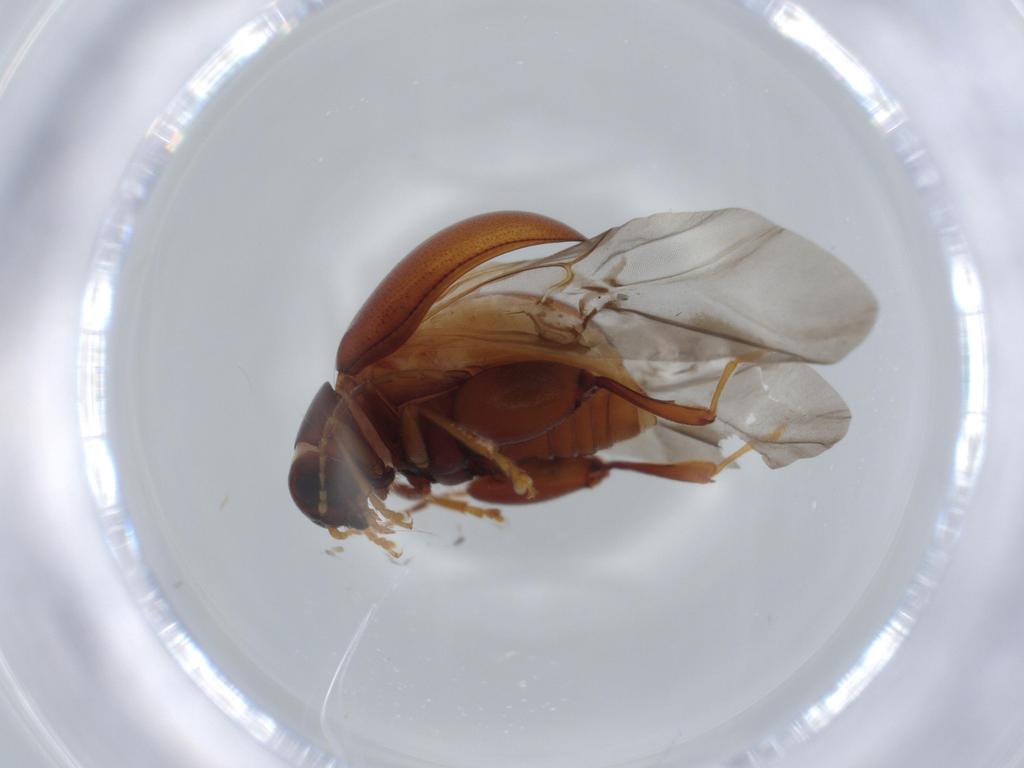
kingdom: Animalia
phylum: Arthropoda
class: Insecta
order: Coleoptera
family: Chrysomelidae
